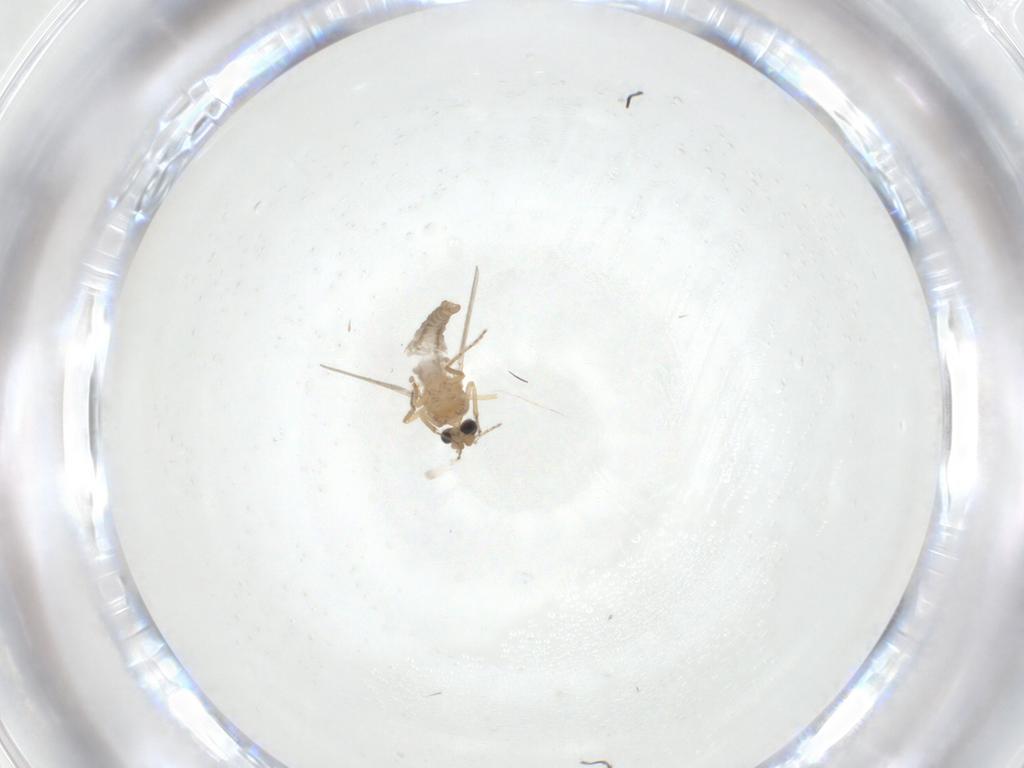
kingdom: Animalia
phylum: Arthropoda
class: Insecta
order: Diptera
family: Ceratopogonidae
